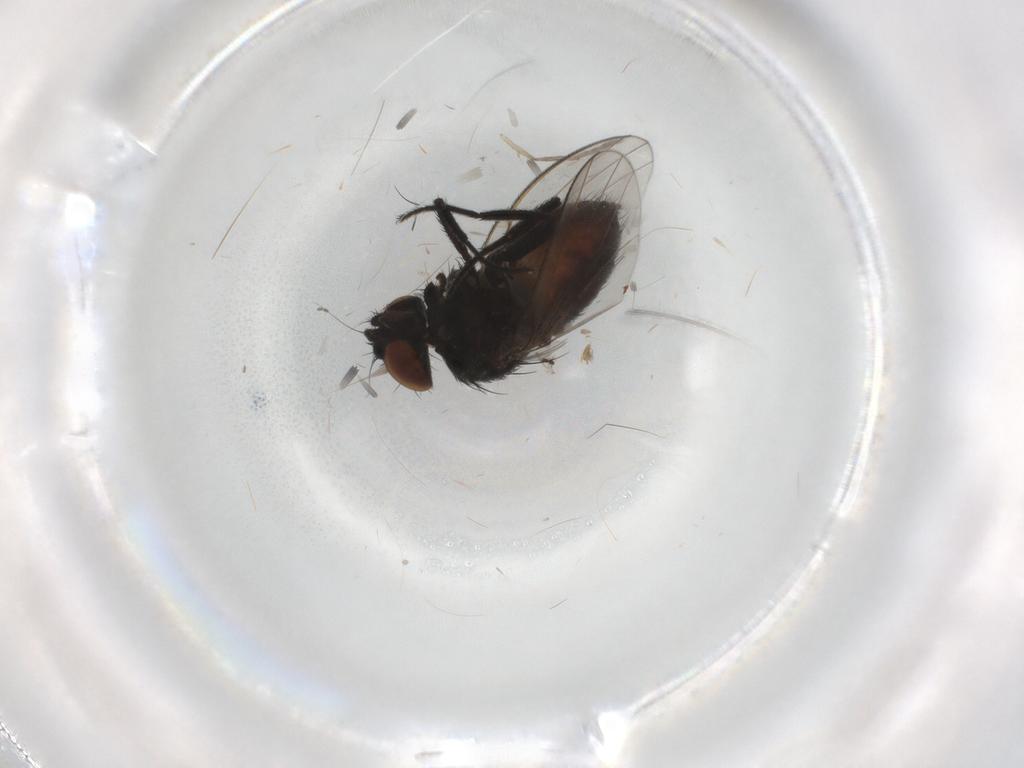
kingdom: Animalia
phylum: Arthropoda
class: Insecta
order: Diptera
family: Milichiidae
